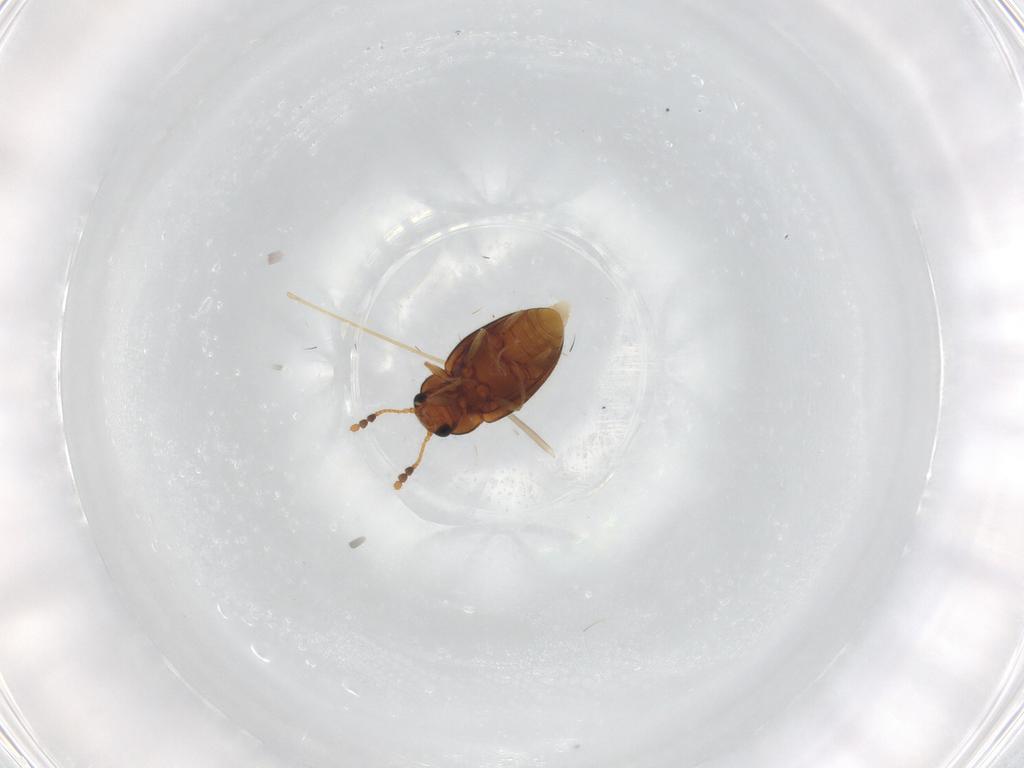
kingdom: Animalia
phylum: Arthropoda
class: Insecta
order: Coleoptera
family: Erotylidae
